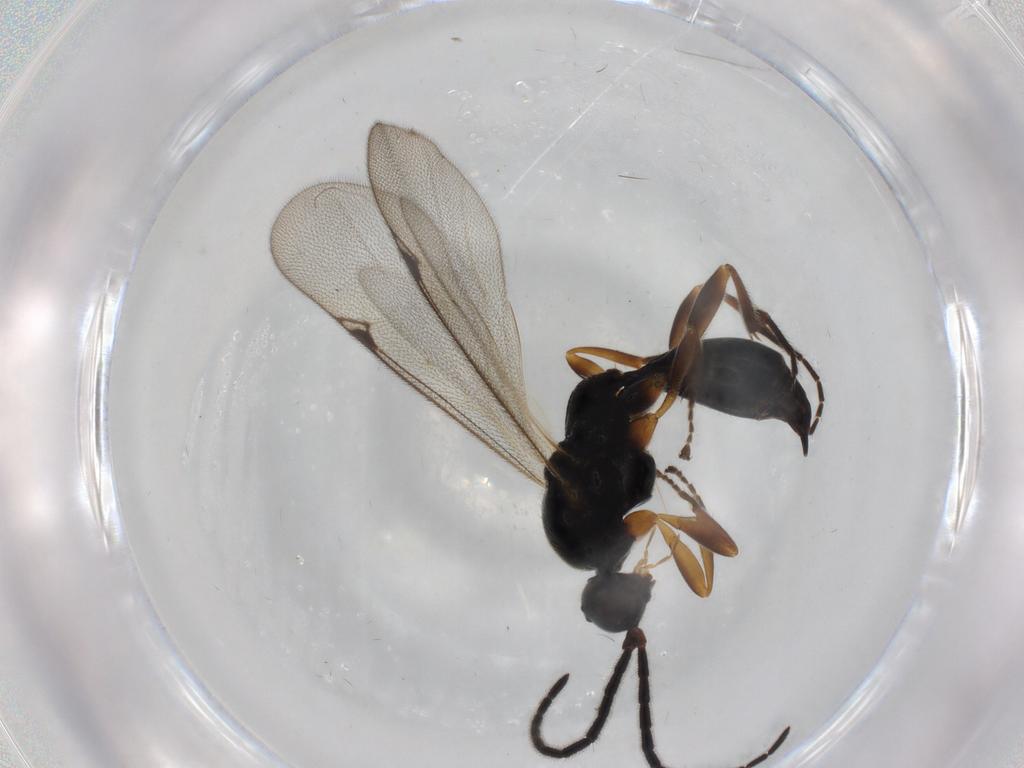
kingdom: Animalia
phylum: Arthropoda
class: Insecta
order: Hymenoptera
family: Proctotrupidae
